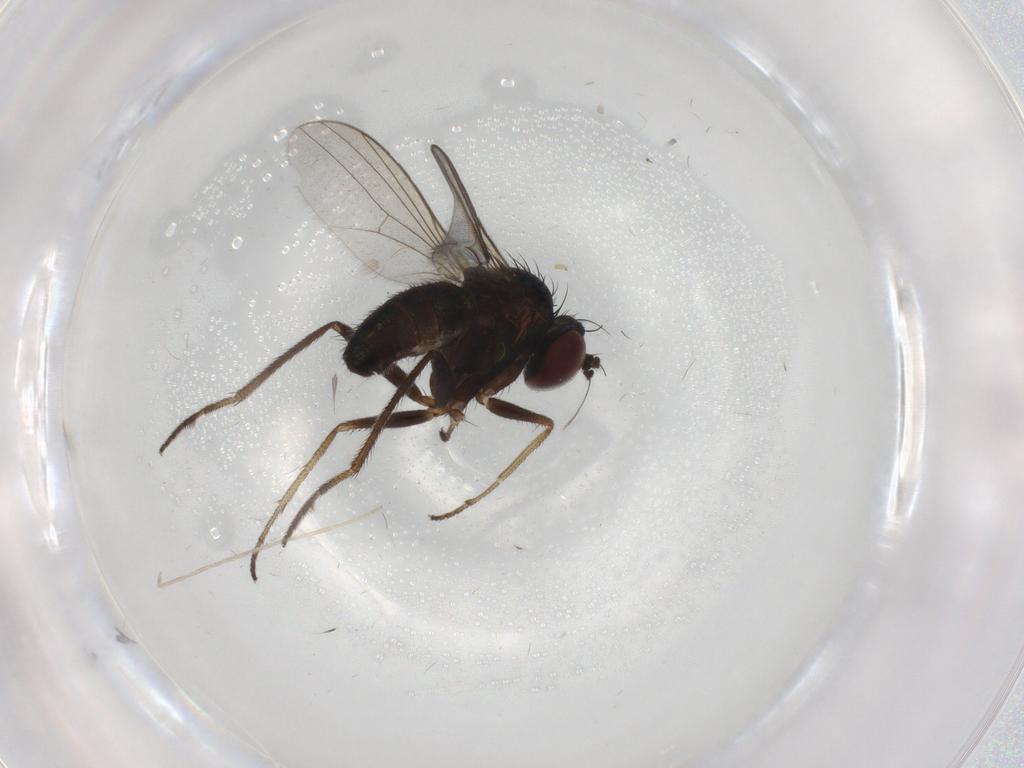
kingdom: Animalia
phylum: Arthropoda
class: Insecta
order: Diptera
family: Chironomidae
